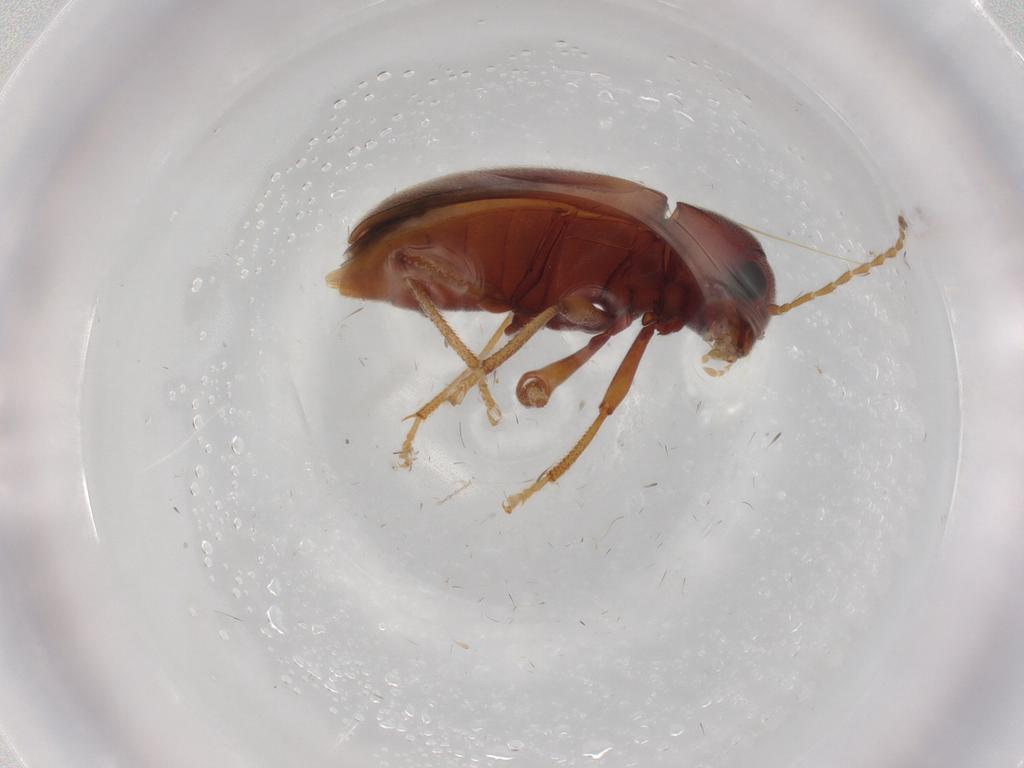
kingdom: Animalia
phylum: Arthropoda
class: Insecta
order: Coleoptera
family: Ptilodactylidae
